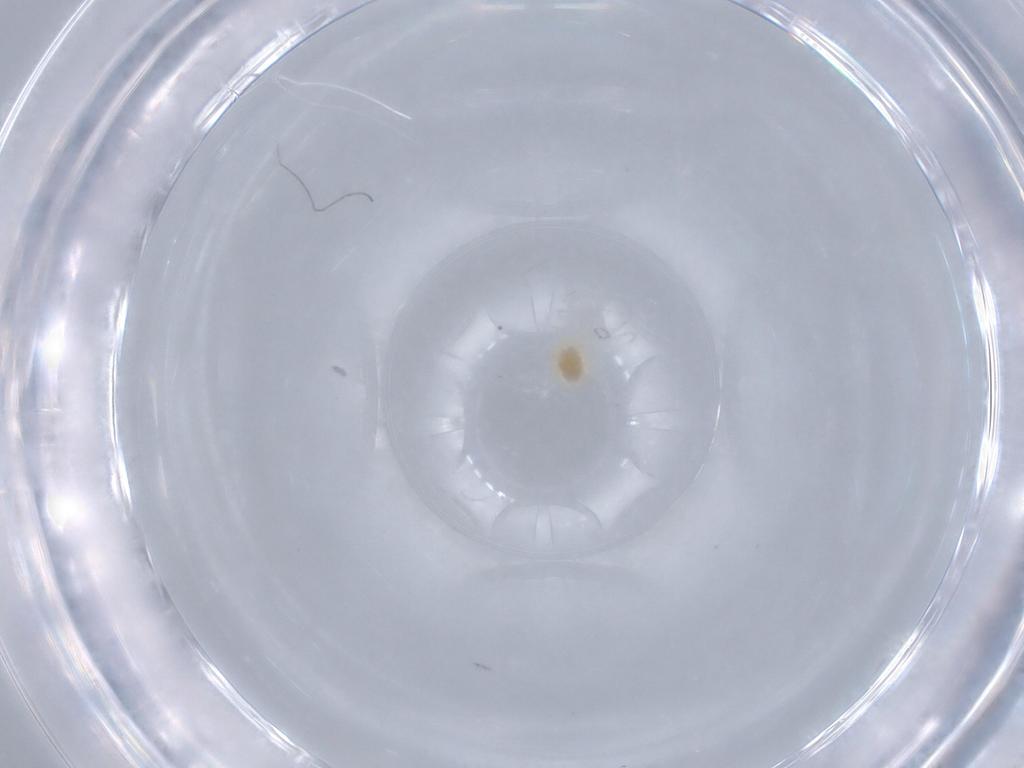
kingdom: Animalia
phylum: Arthropoda
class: Arachnida
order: Trombidiformes
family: Tetranychidae
